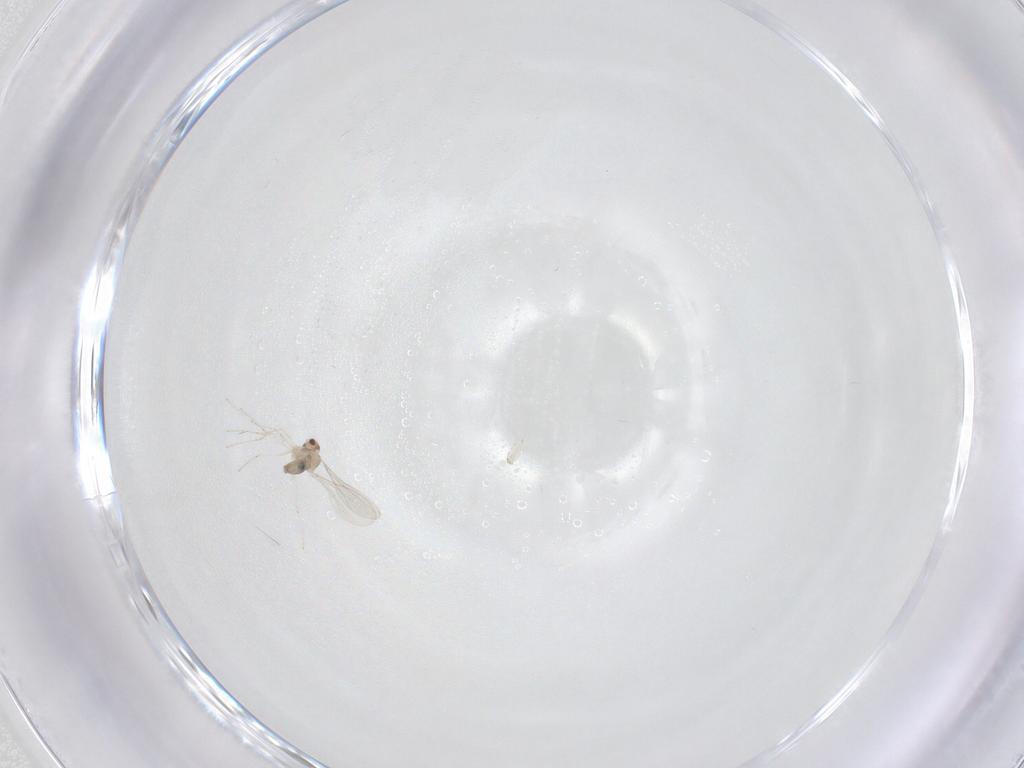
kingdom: Animalia
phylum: Arthropoda
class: Insecta
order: Diptera
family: Cecidomyiidae
